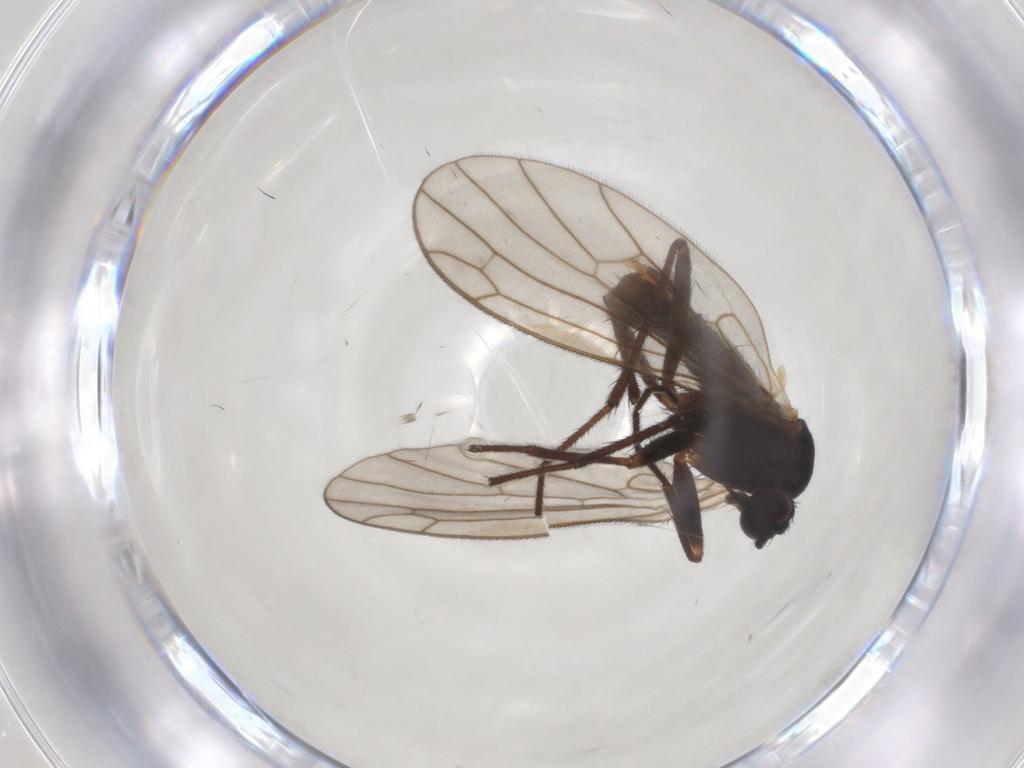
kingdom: Animalia
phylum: Arthropoda
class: Insecta
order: Diptera
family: Empididae
